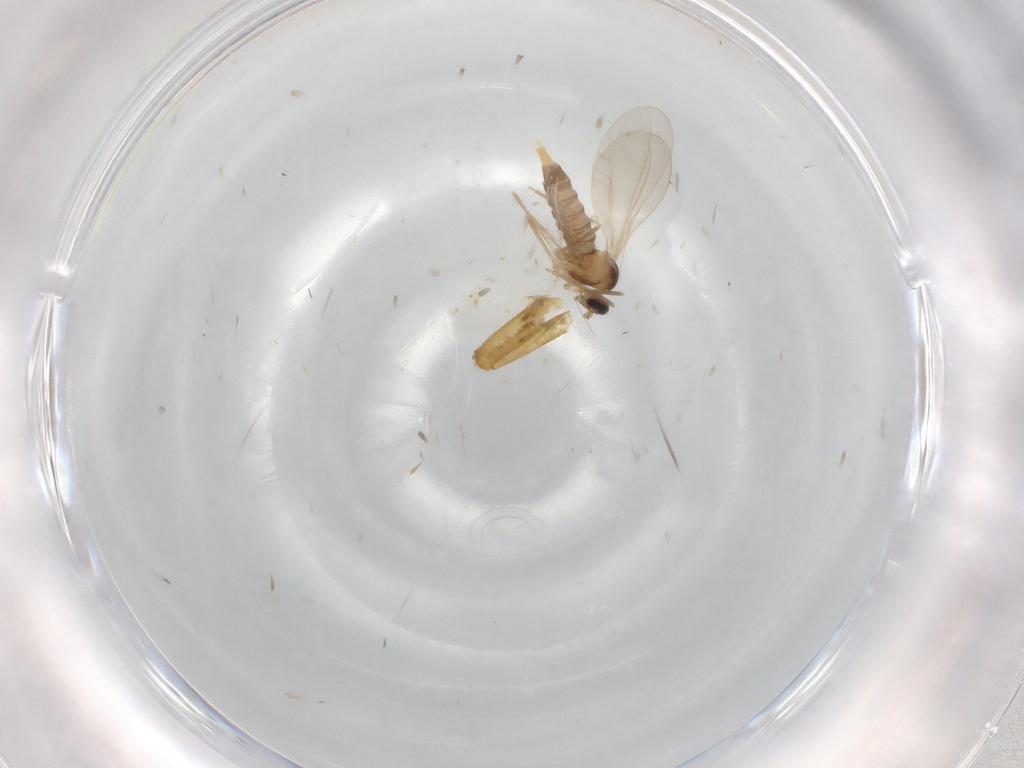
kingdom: Animalia
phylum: Arthropoda
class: Insecta
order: Diptera
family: Cecidomyiidae
